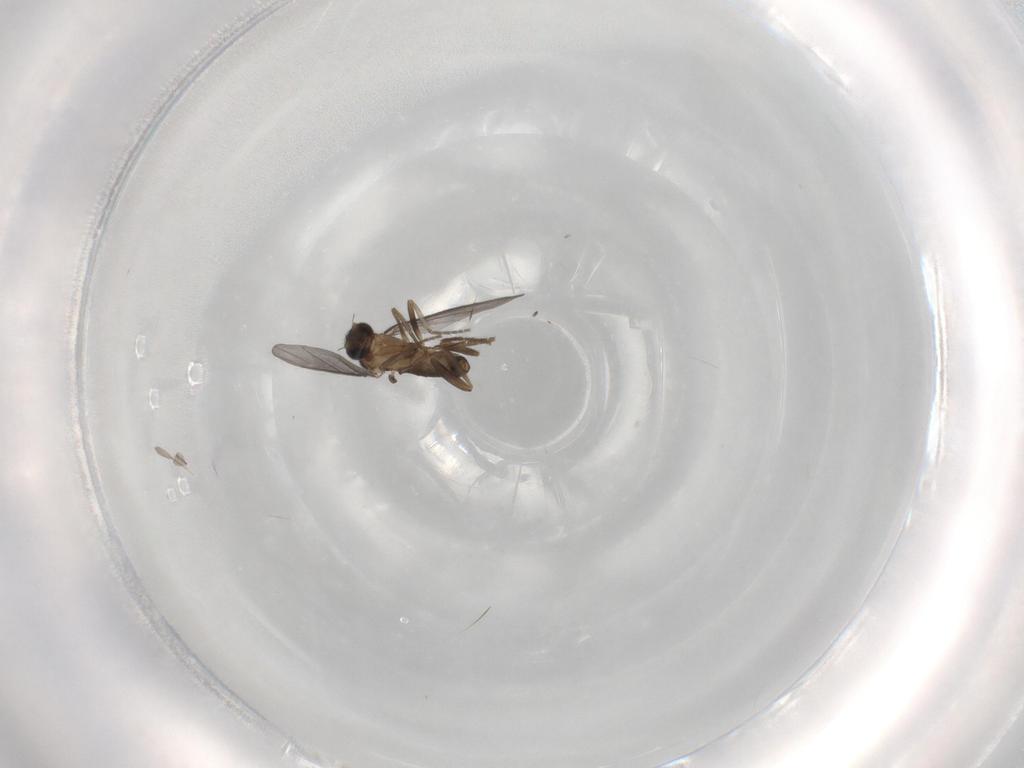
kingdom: Animalia
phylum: Arthropoda
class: Insecta
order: Diptera
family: Phoridae
